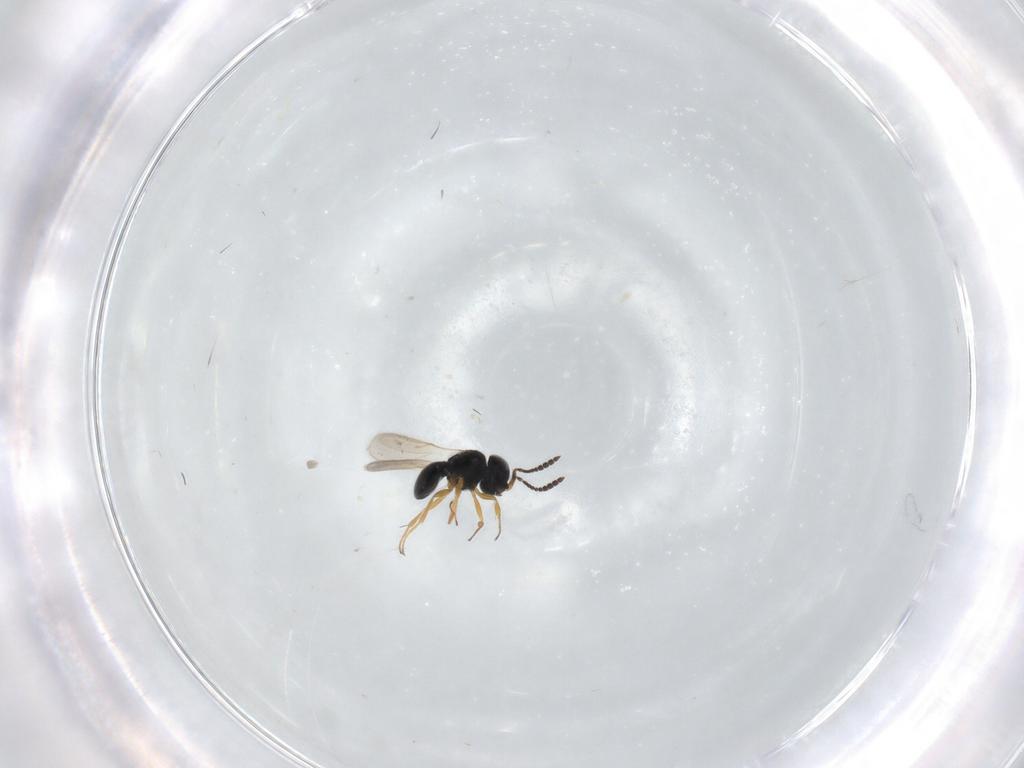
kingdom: Animalia
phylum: Arthropoda
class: Insecta
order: Hymenoptera
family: Scelionidae
